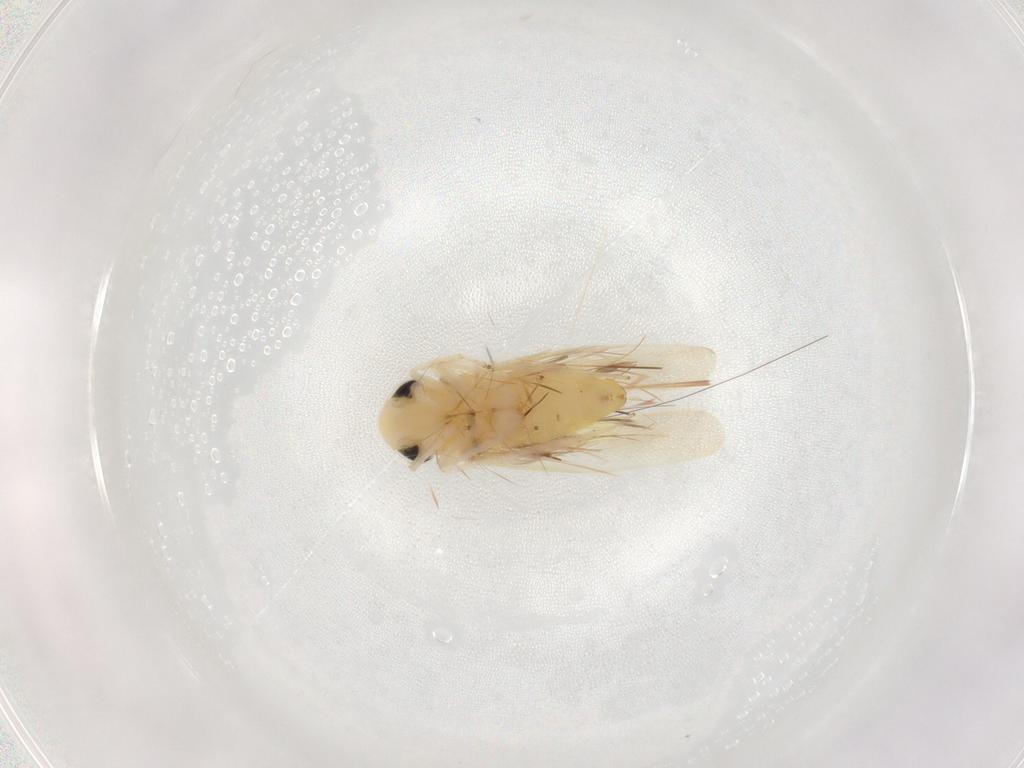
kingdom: Animalia
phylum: Arthropoda
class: Insecta
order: Hemiptera
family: Cicadellidae
